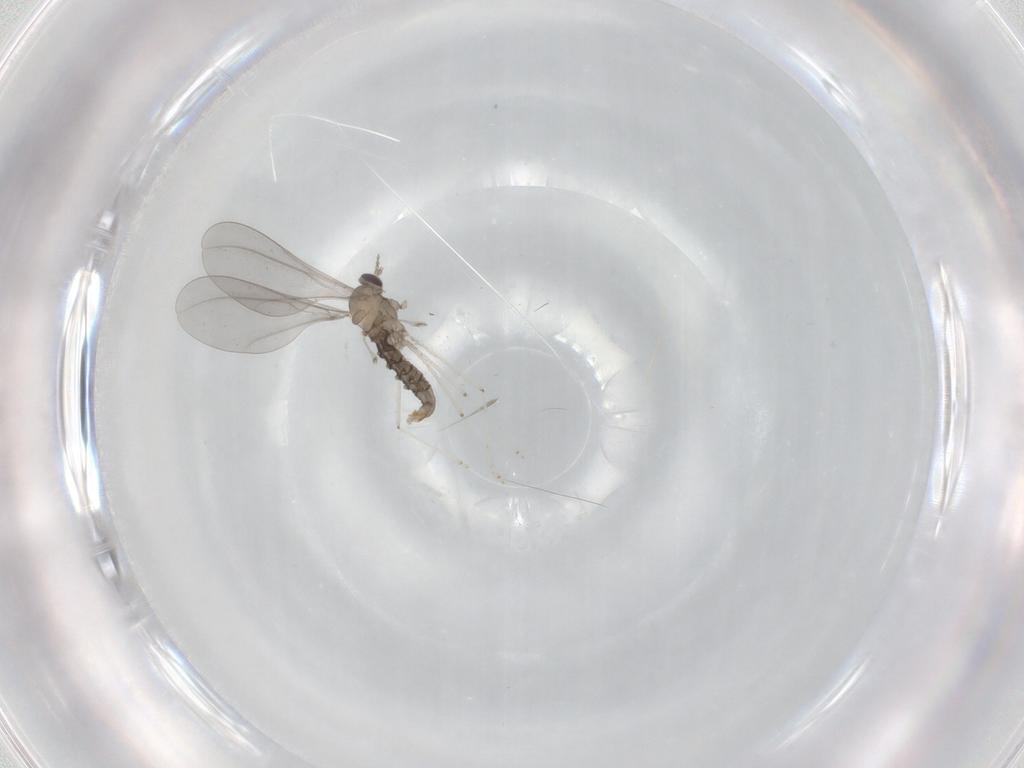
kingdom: Animalia
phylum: Arthropoda
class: Insecta
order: Diptera
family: Cecidomyiidae
